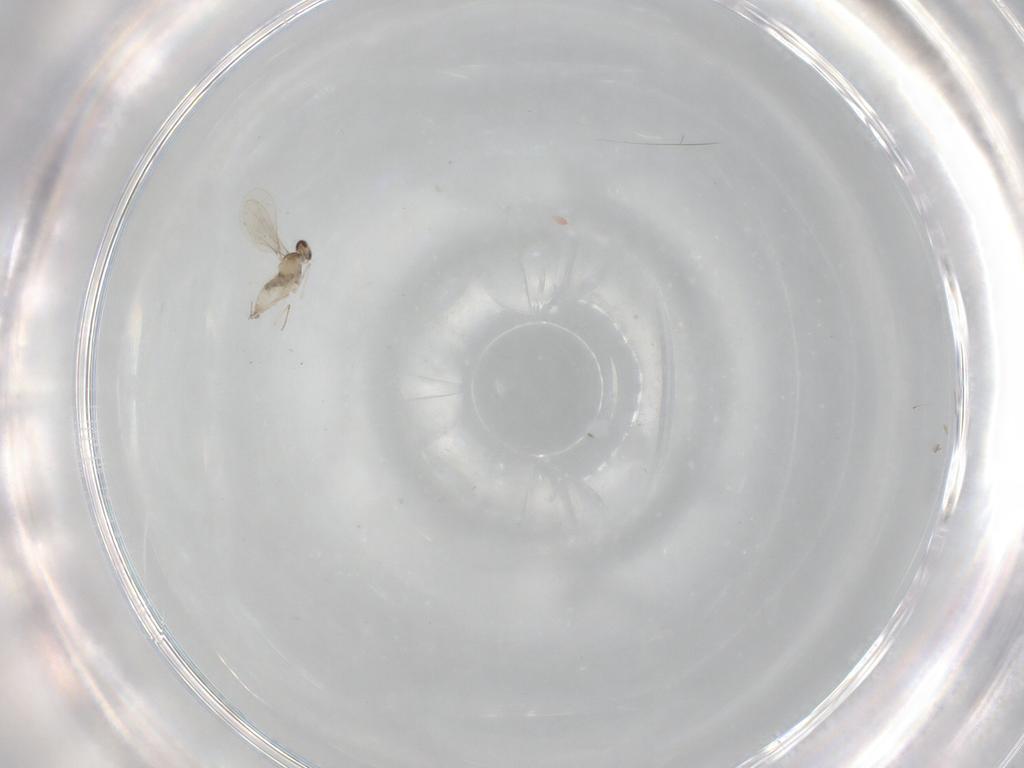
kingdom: Animalia
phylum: Arthropoda
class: Insecta
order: Diptera
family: Cecidomyiidae
